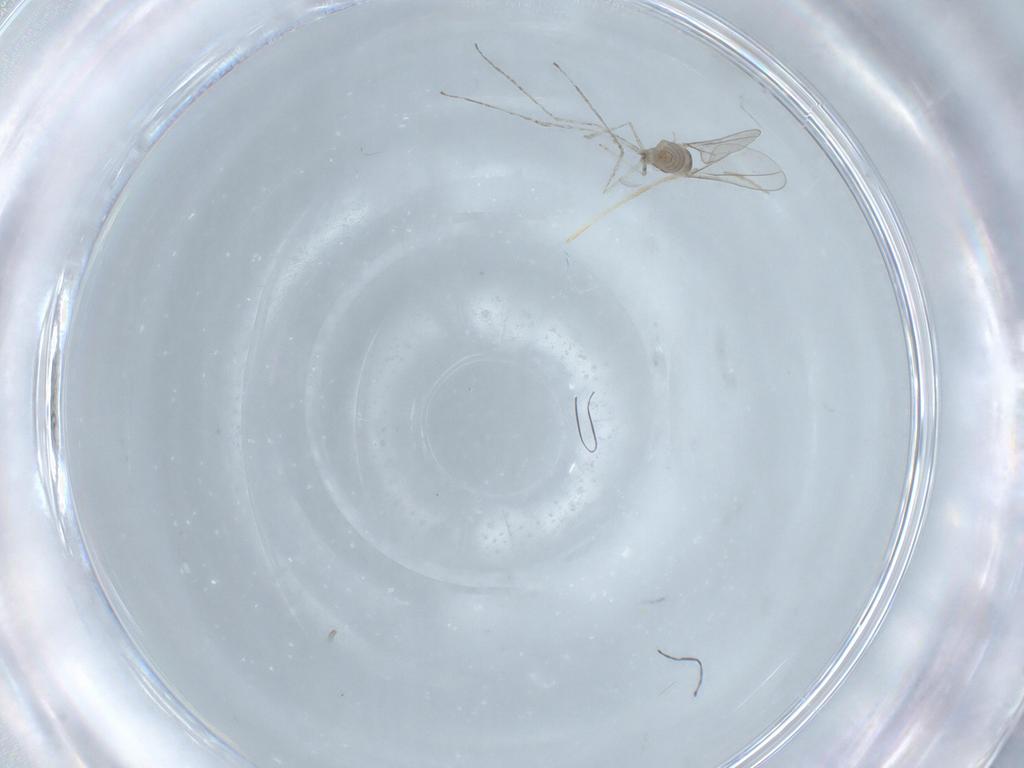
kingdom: Animalia
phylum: Arthropoda
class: Insecta
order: Diptera
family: Cecidomyiidae
